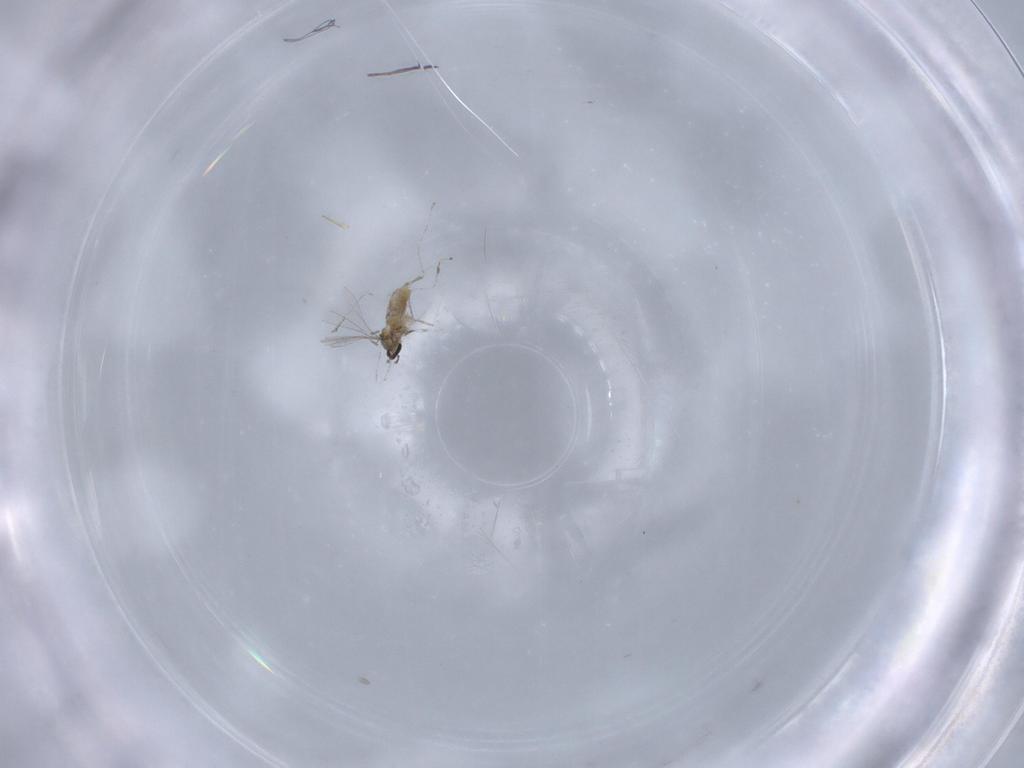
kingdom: Animalia
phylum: Arthropoda
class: Insecta
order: Diptera
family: Cecidomyiidae
